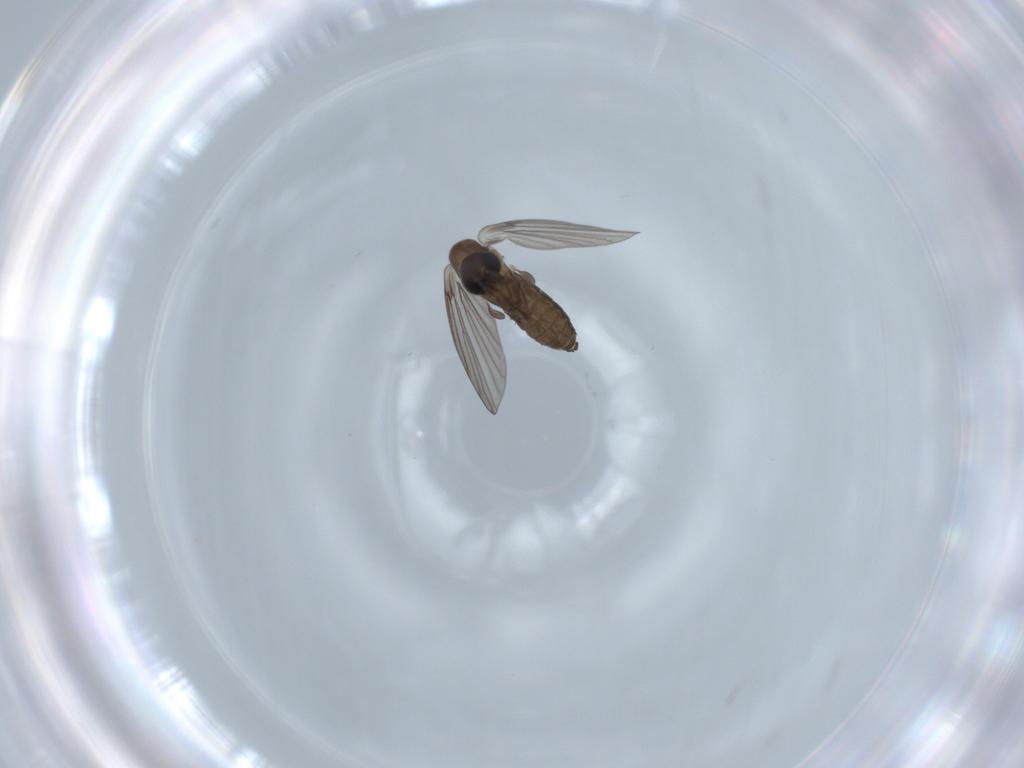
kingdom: Animalia
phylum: Arthropoda
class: Insecta
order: Diptera
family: Psychodidae
